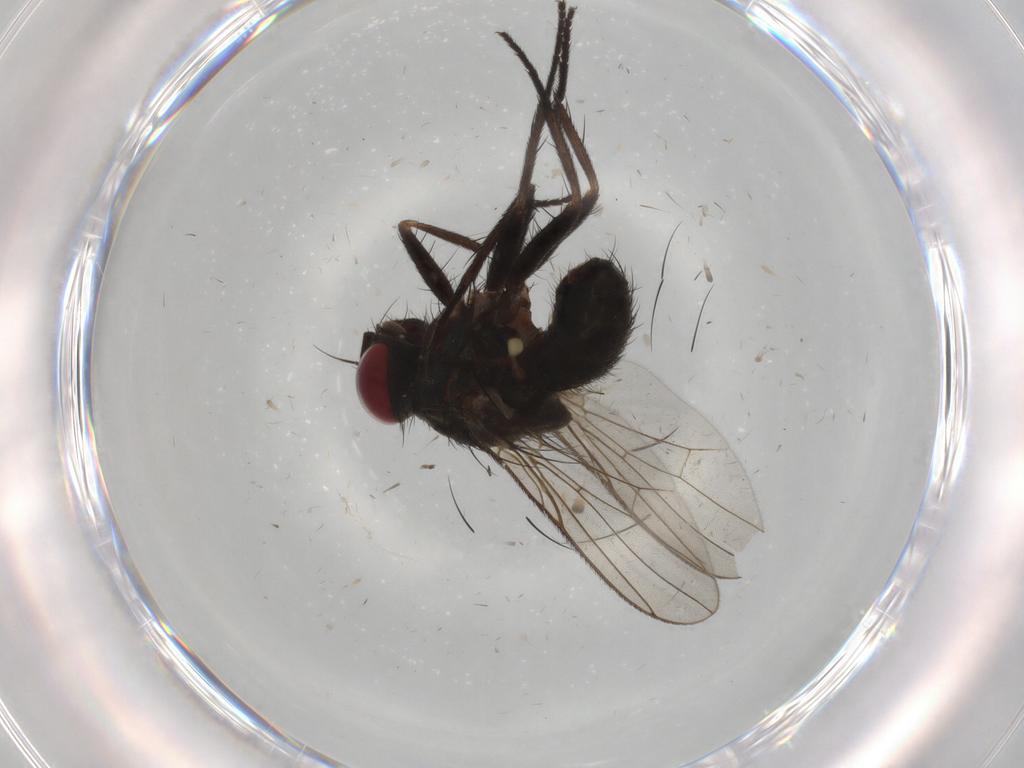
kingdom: Animalia
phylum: Arthropoda
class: Insecta
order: Diptera
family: Muscidae
